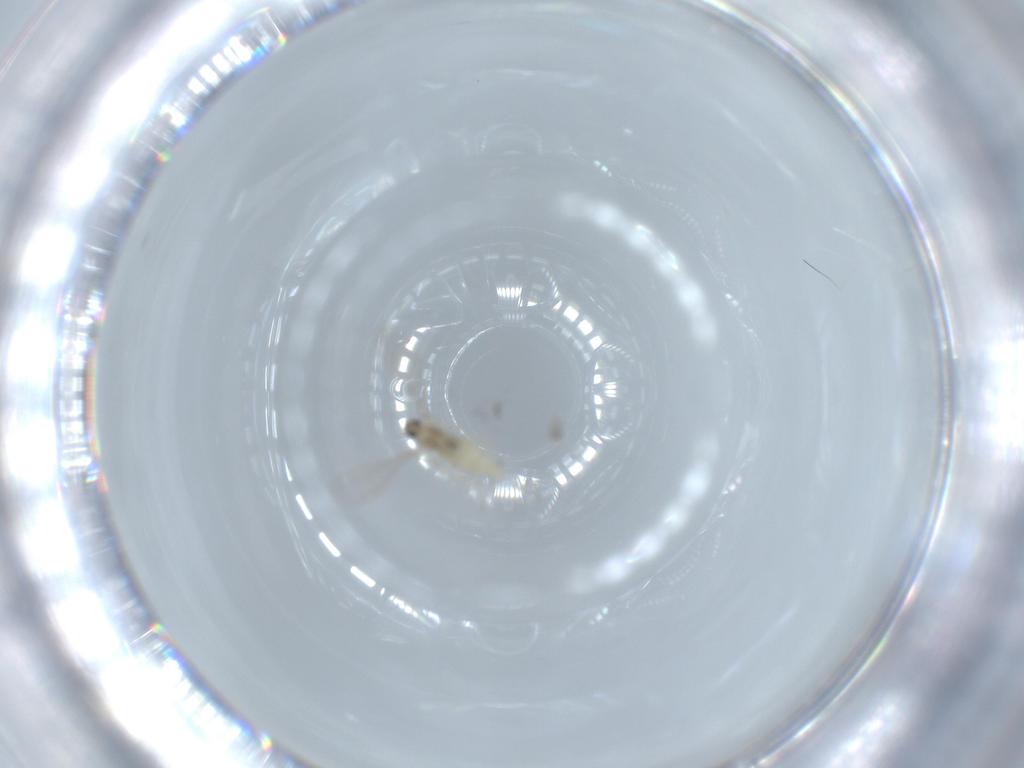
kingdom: Animalia
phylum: Arthropoda
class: Insecta
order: Diptera
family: Cecidomyiidae
